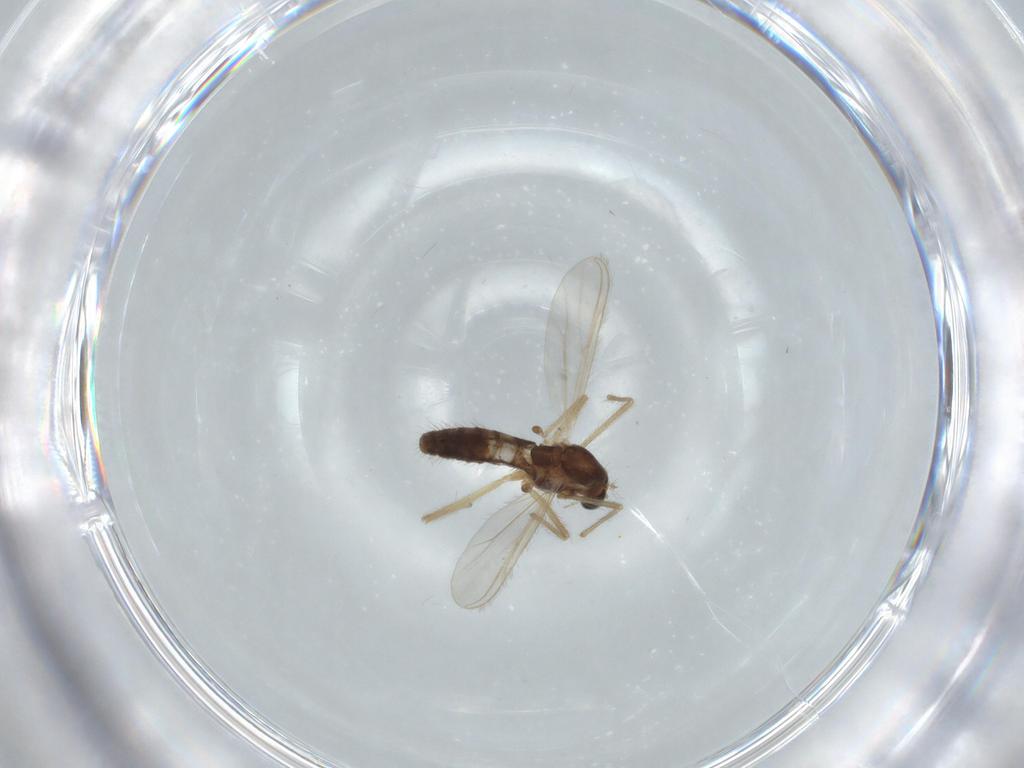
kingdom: Animalia
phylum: Arthropoda
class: Insecta
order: Diptera
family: Chironomidae
